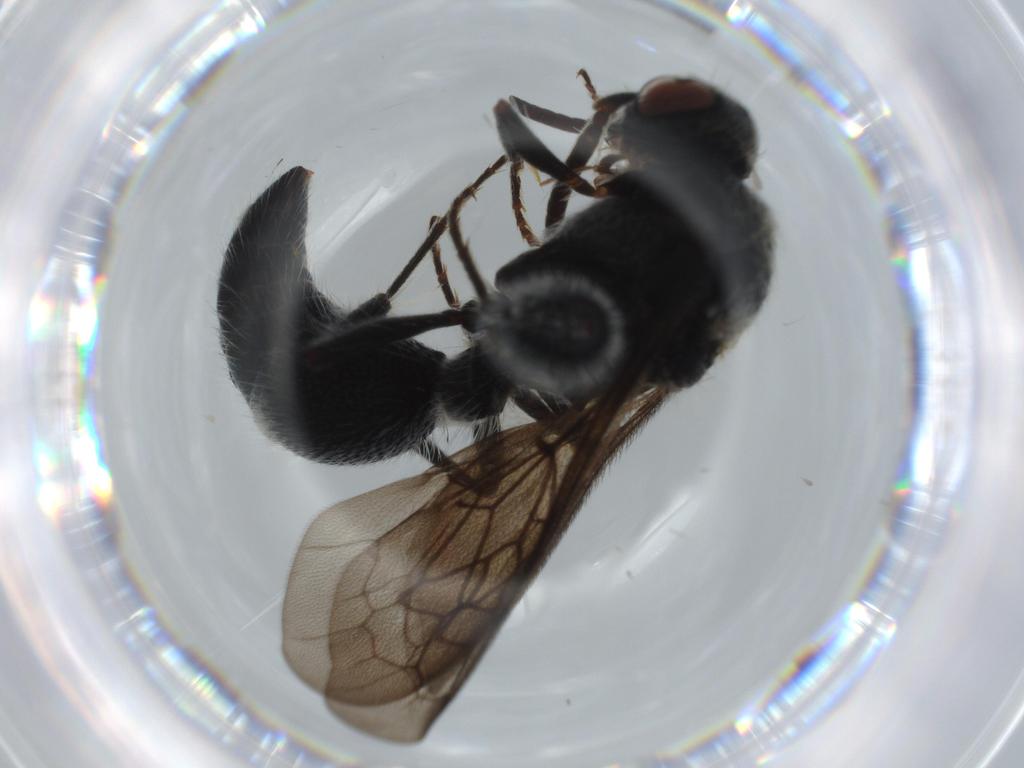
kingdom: Animalia
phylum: Arthropoda
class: Insecta
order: Hymenoptera
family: Formicidae
